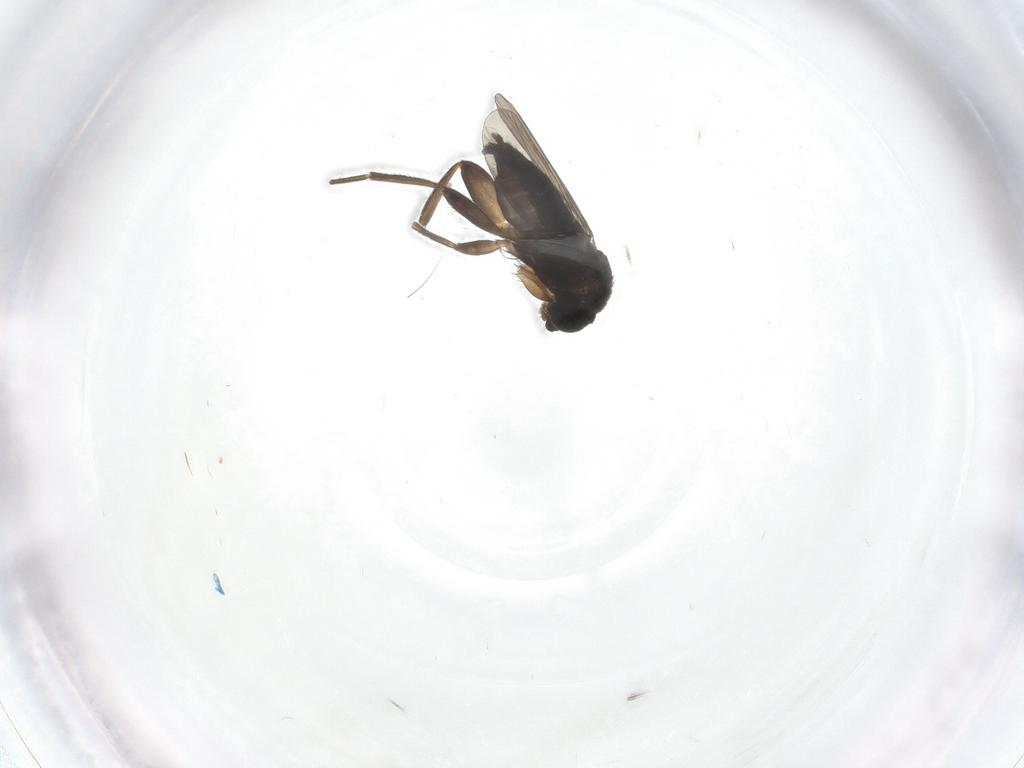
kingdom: Animalia
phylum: Arthropoda
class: Insecta
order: Diptera
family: Phoridae
